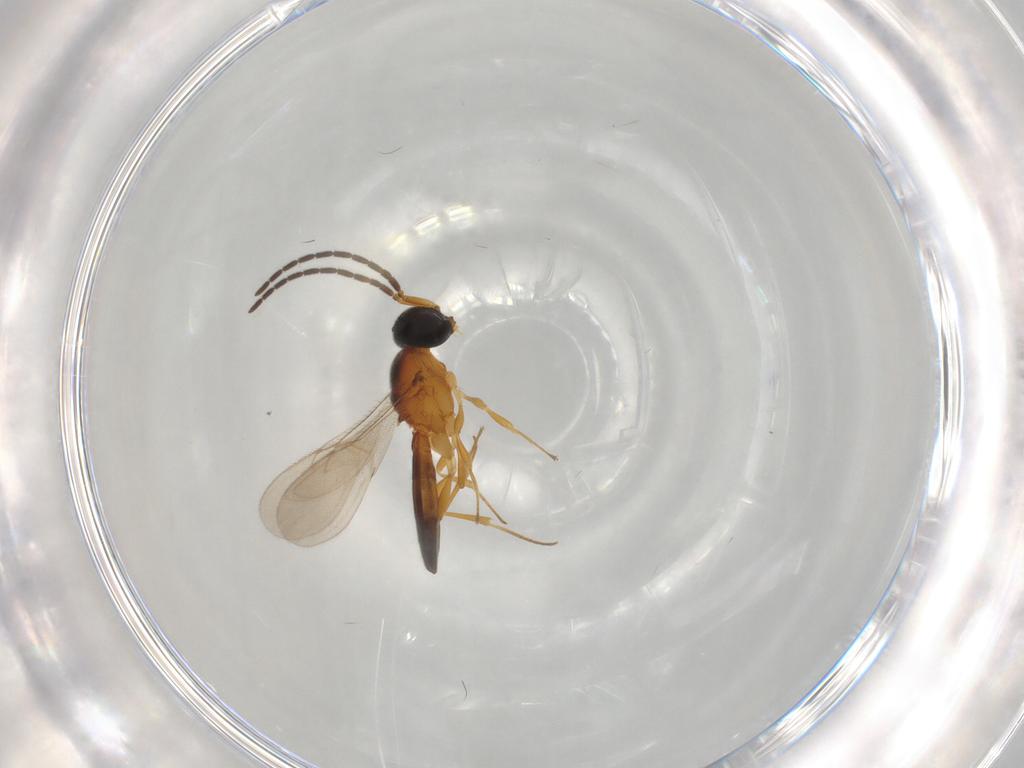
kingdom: Animalia
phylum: Arthropoda
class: Insecta
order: Hymenoptera
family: Scelionidae
